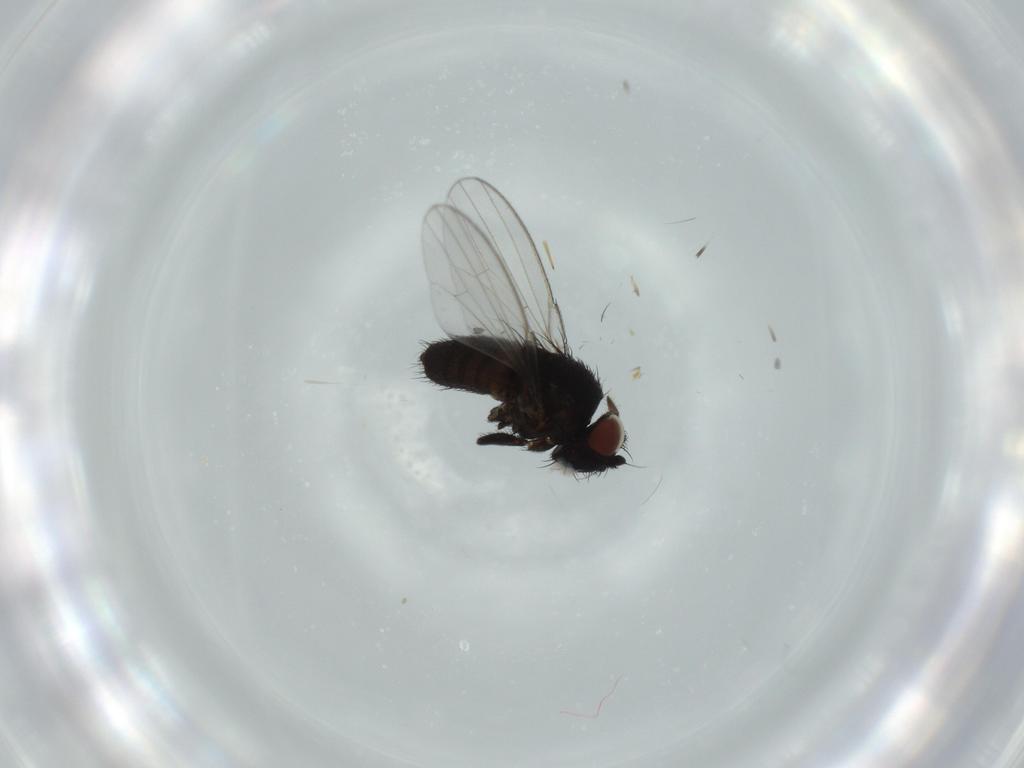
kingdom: Animalia
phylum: Arthropoda
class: Insecta
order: Diptera
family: Milichiidae
